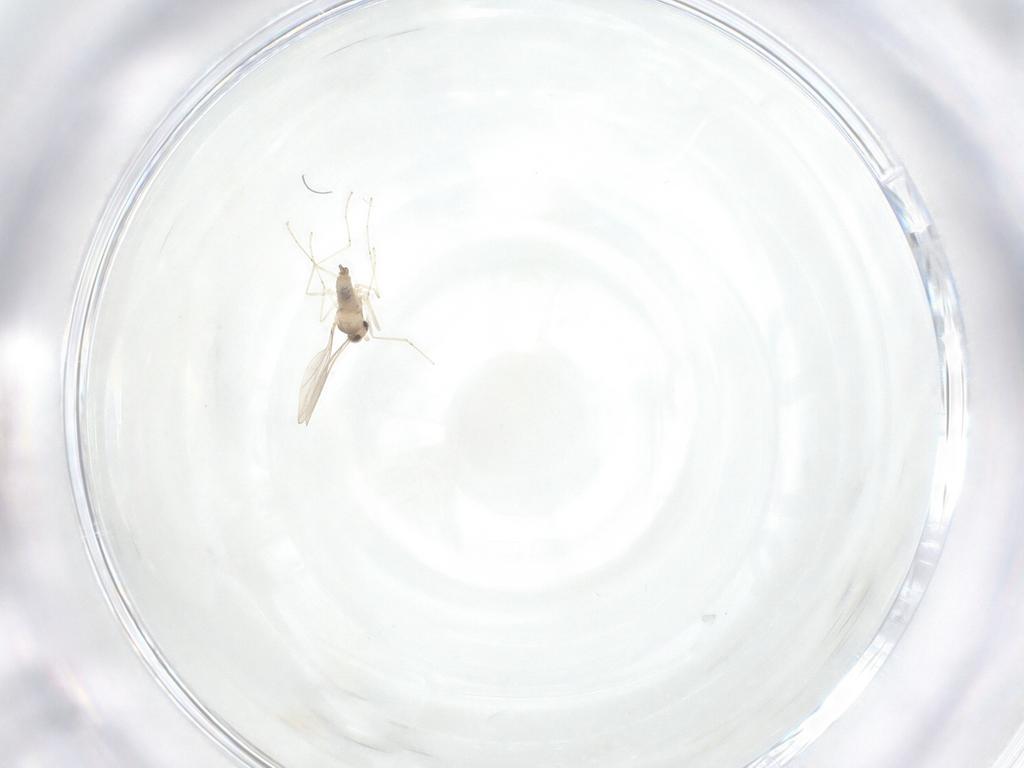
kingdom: Animalia
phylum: Arthropoda
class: Insecta
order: Diptera
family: Cecidomyiidae
